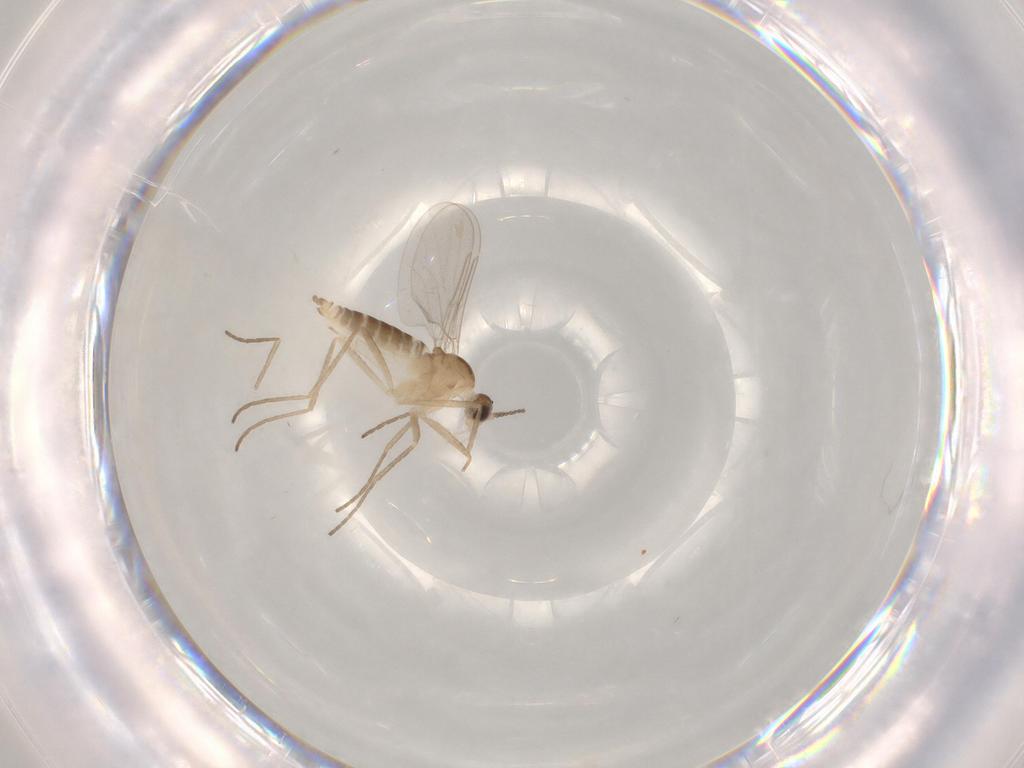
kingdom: Animalia
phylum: Arthropoda
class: Insecta
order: Diptera
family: Cecidomyiidae
